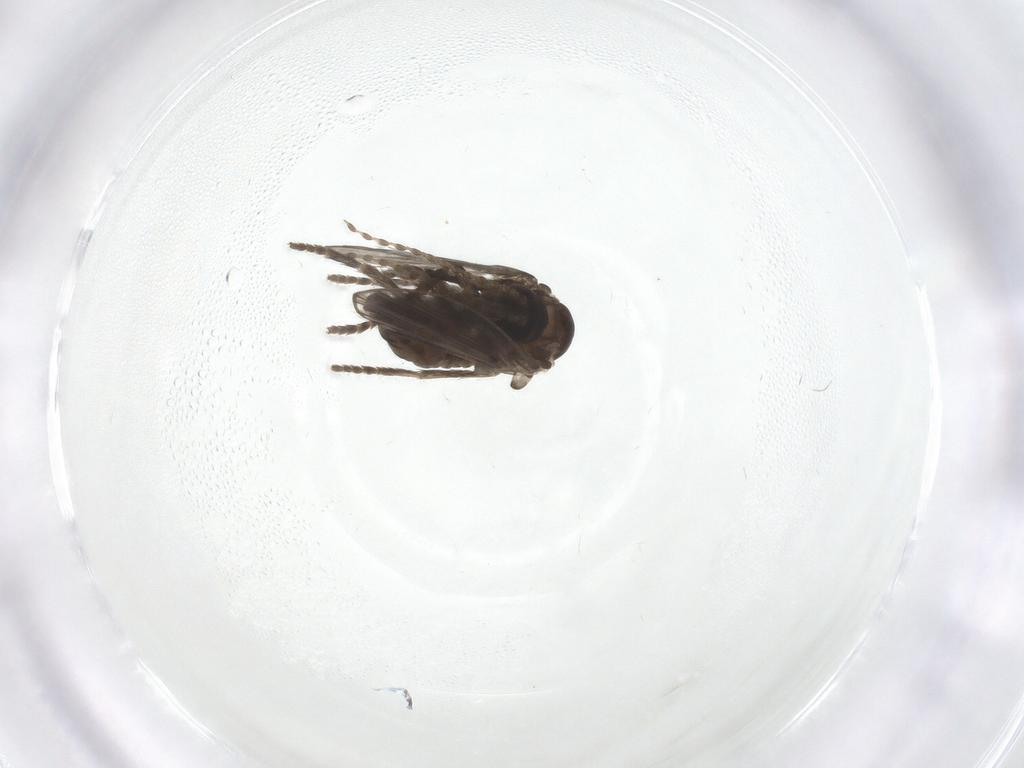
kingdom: Animalia
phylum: Arthropoda
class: Insecta
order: Diptera
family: Psychodidae
